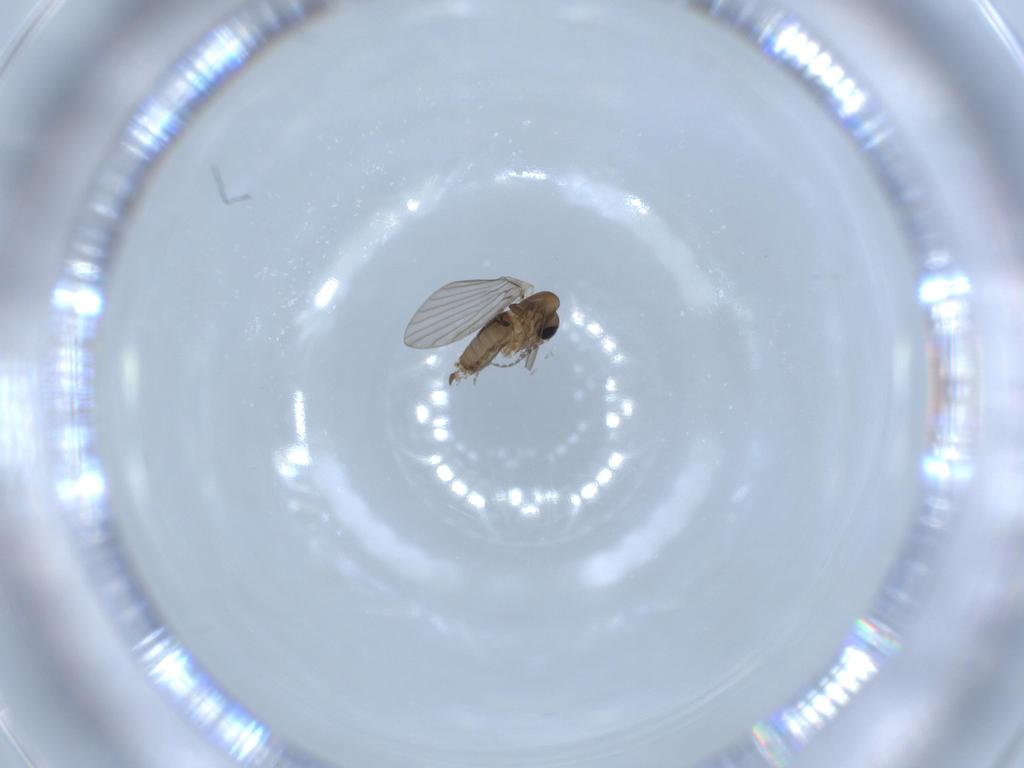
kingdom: Animalia
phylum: Arthropoda
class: Insecta
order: Diptera
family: Psychodidae
